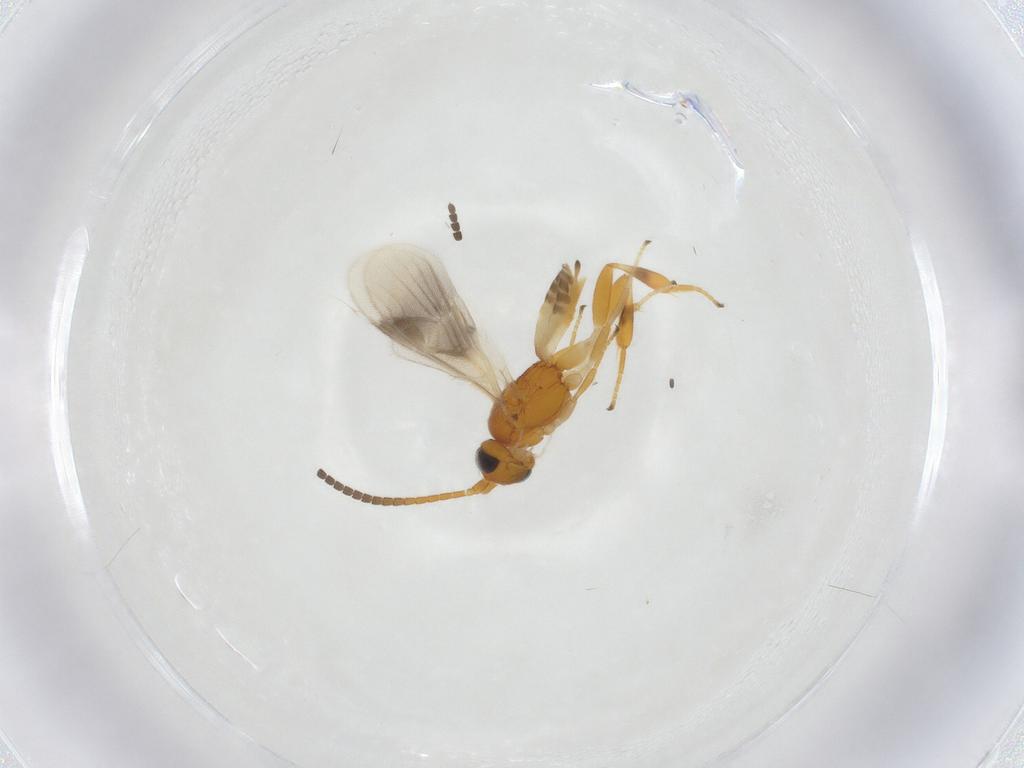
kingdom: Animalia
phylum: Arthropoda
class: Insecta
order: Hymenoptera
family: Braconidae
